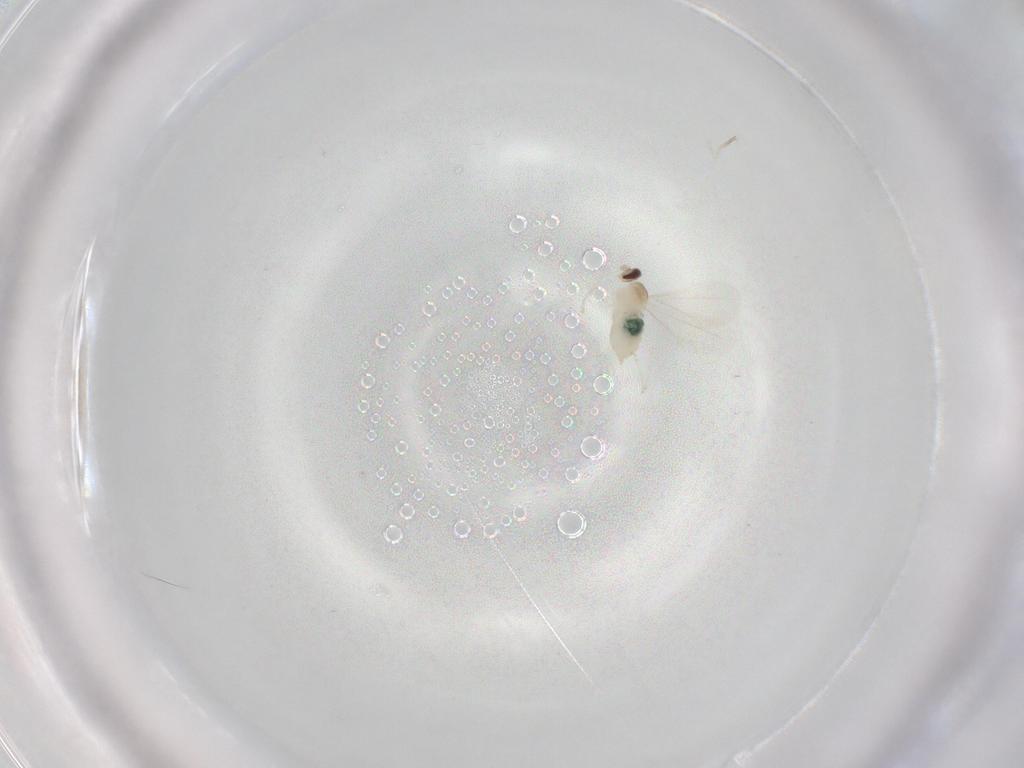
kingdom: Animalia
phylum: Arthropoda
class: Insecta
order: Diptera
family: Cecidomyiidae
